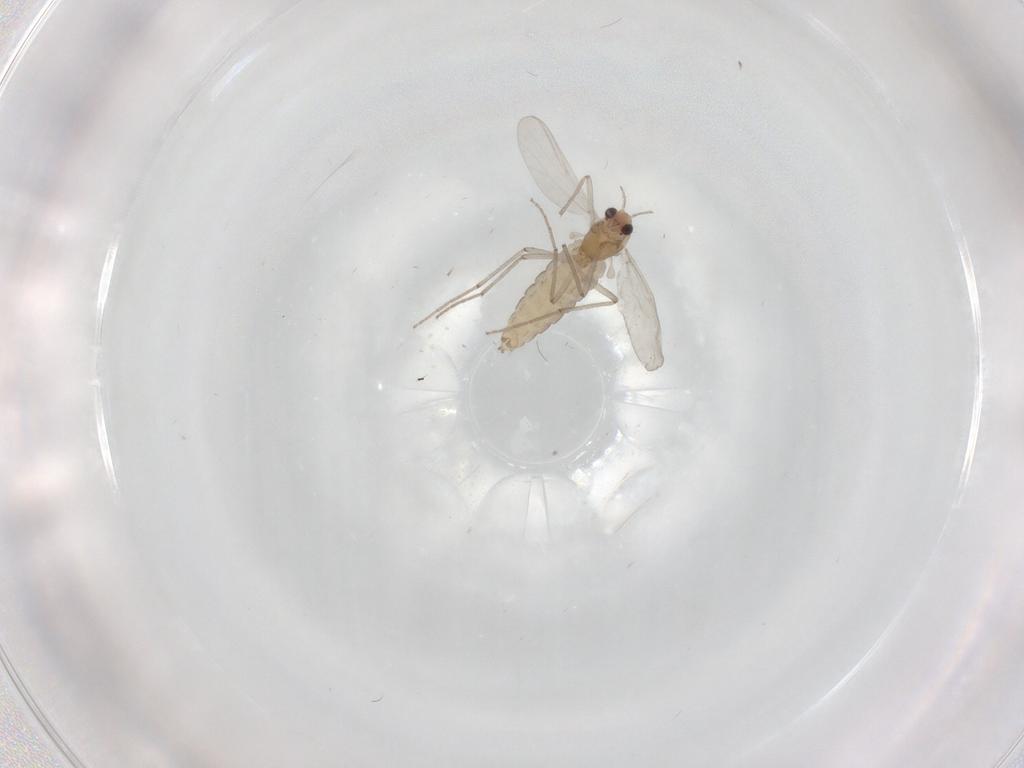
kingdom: Animalia
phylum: Arthropoda
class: Insecta
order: Diptera
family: Chironomidae
